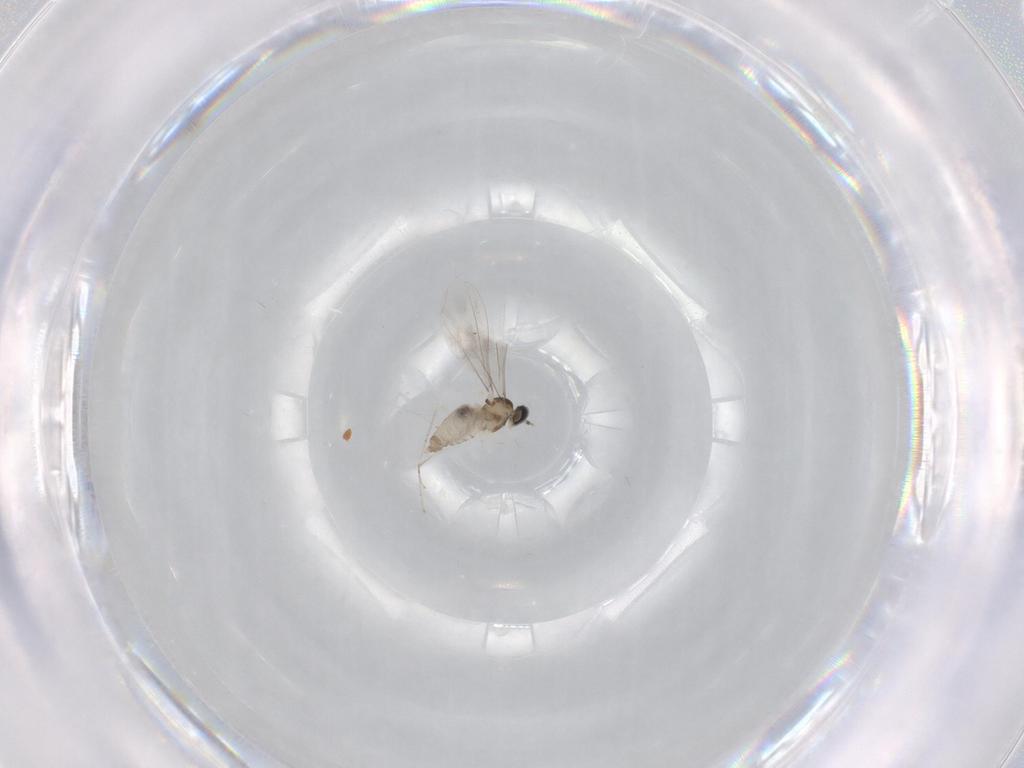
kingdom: Animalia
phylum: Arthropoda
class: Insecta
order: Diptera
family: Cecidomyiidae
